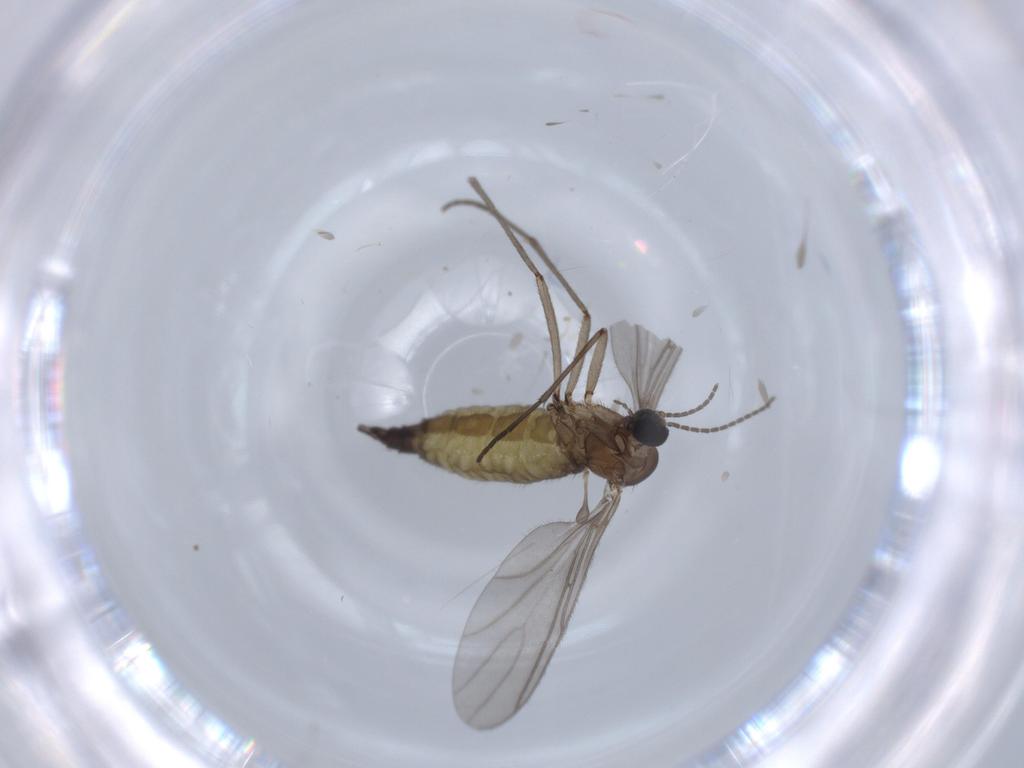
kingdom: Animalia
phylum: Arthropoda
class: Insecta
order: Diptera
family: Sciaridae
